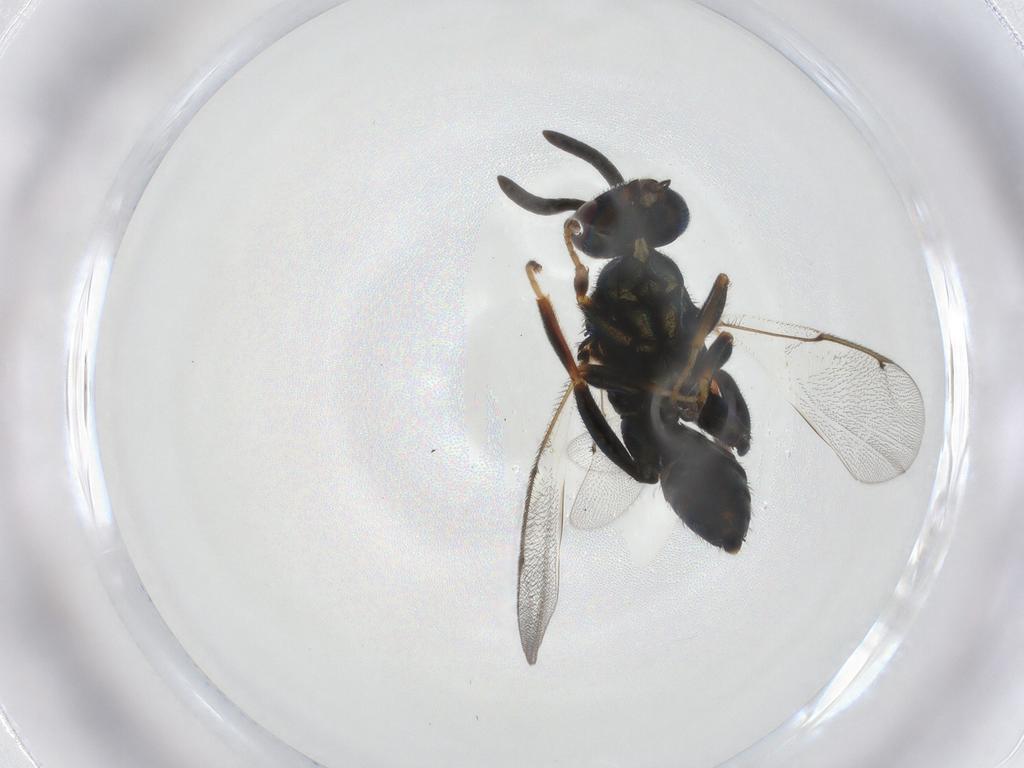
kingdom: Animalia
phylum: Arthropoda
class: Insecta
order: Hymenoptera
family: Torymidae
